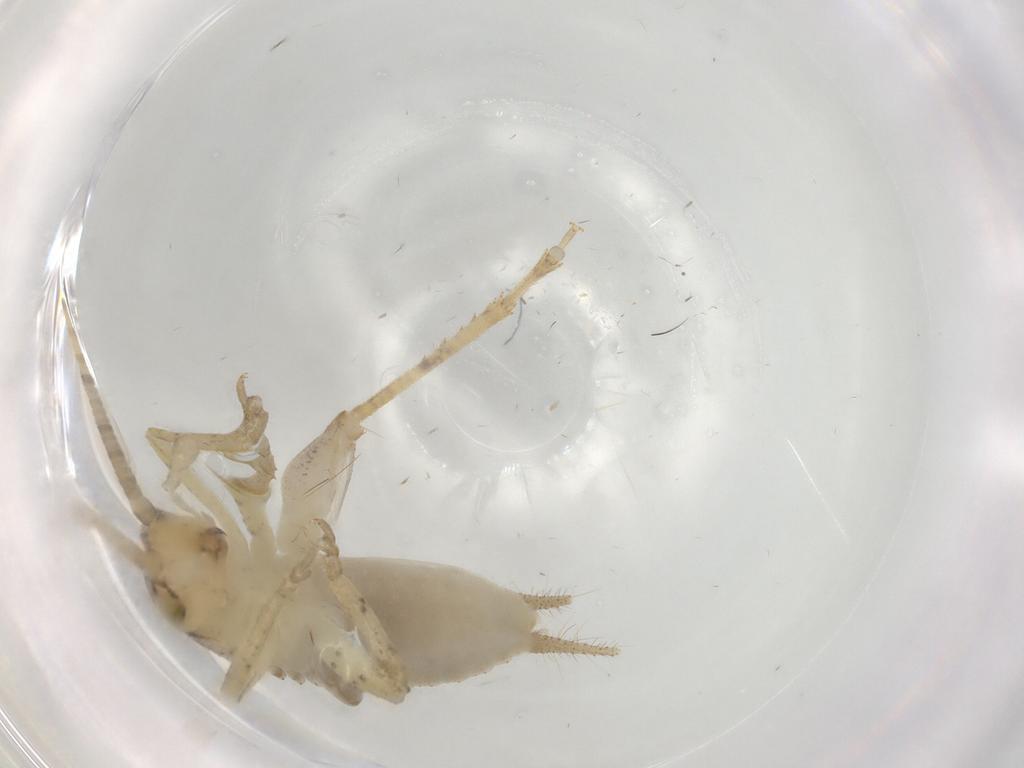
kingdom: Animalia
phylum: Arthropoda
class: Insecta
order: Orthoptera
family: Gryllidae
